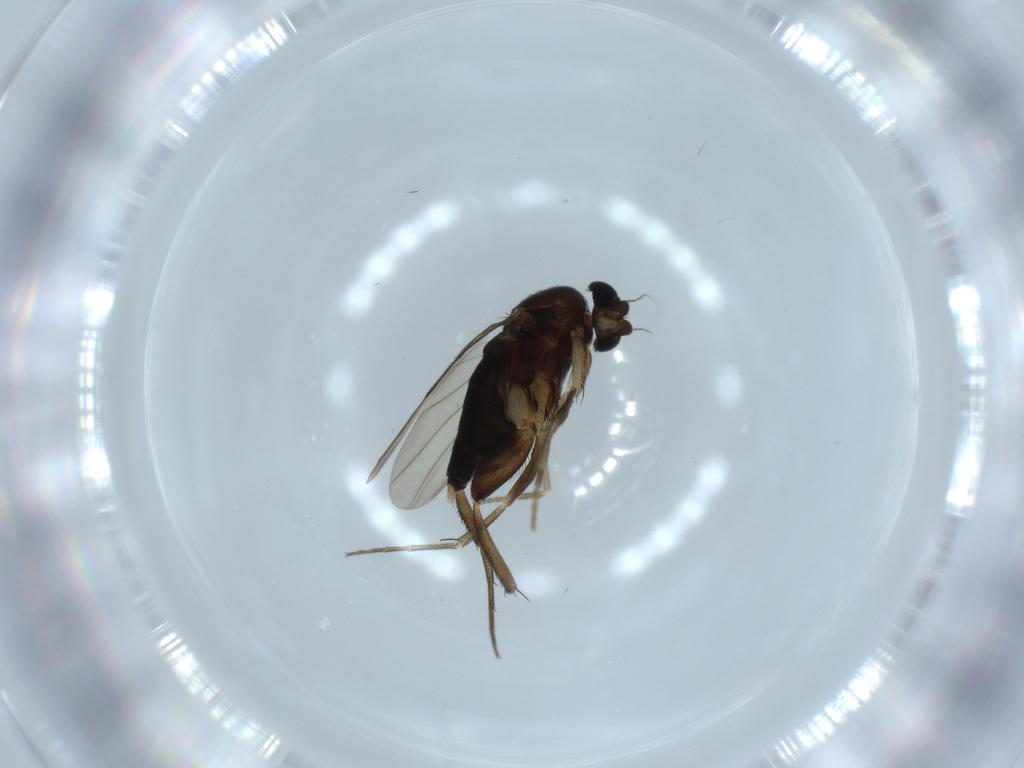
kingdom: Animalia
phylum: Arthropoda
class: Insecta
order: Diptera
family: Phoridae
